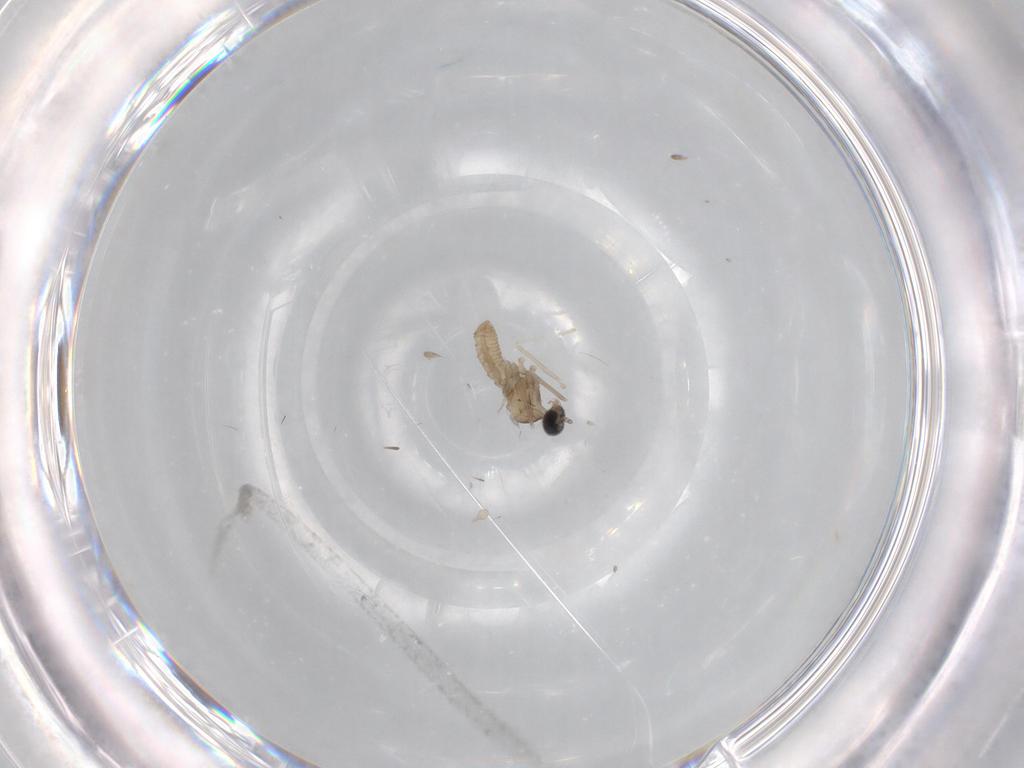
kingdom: Animalia
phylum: Arthropoda
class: Insecta
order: Diptera
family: Cecidomyiidae
